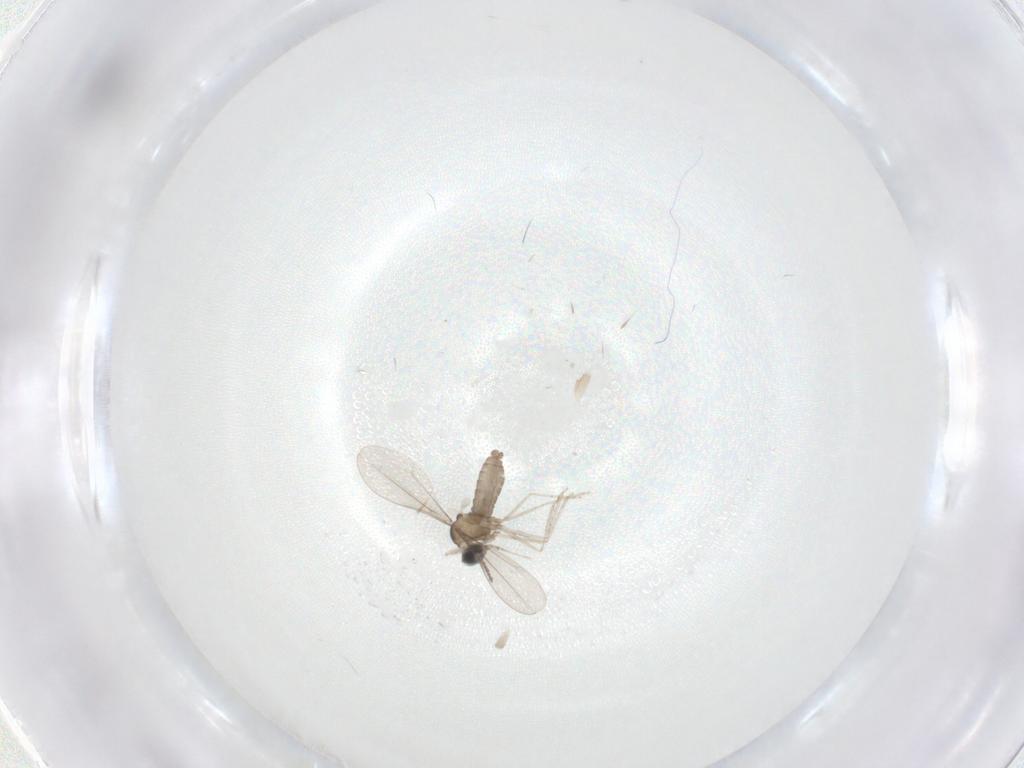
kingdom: Animalia
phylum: Arthropoda
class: Insecta
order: Diptera
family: Cecidomyiidae
